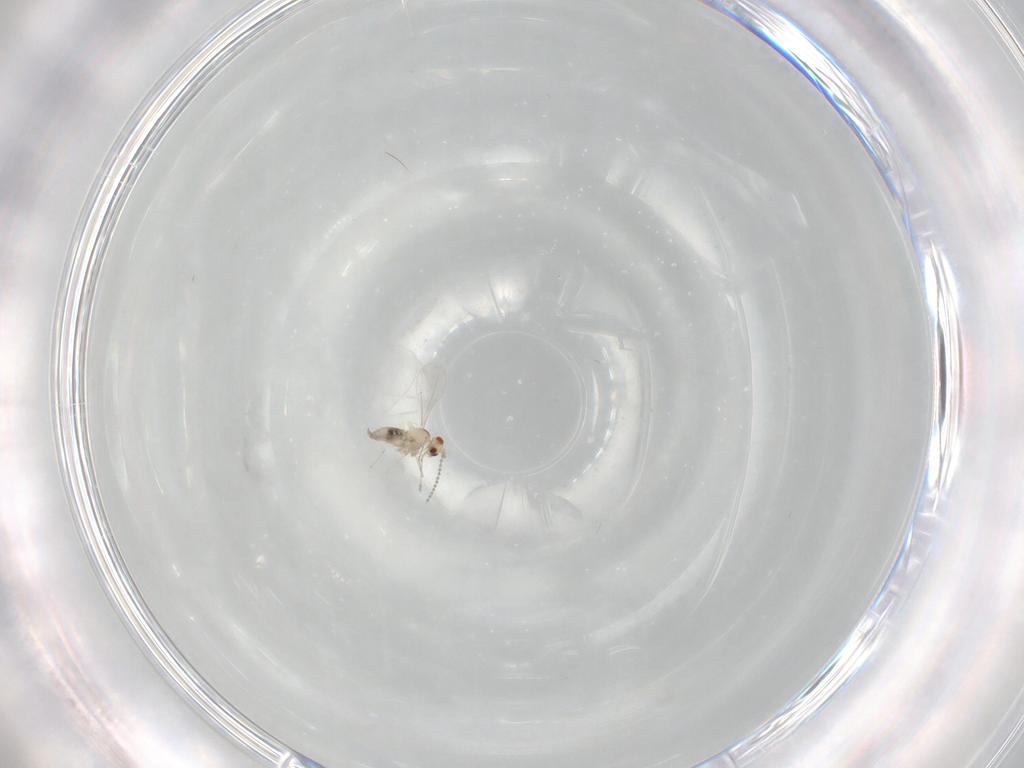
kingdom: Animalia
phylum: Arthropoda
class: Insecta
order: Diptera
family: Cecidomyiidae
